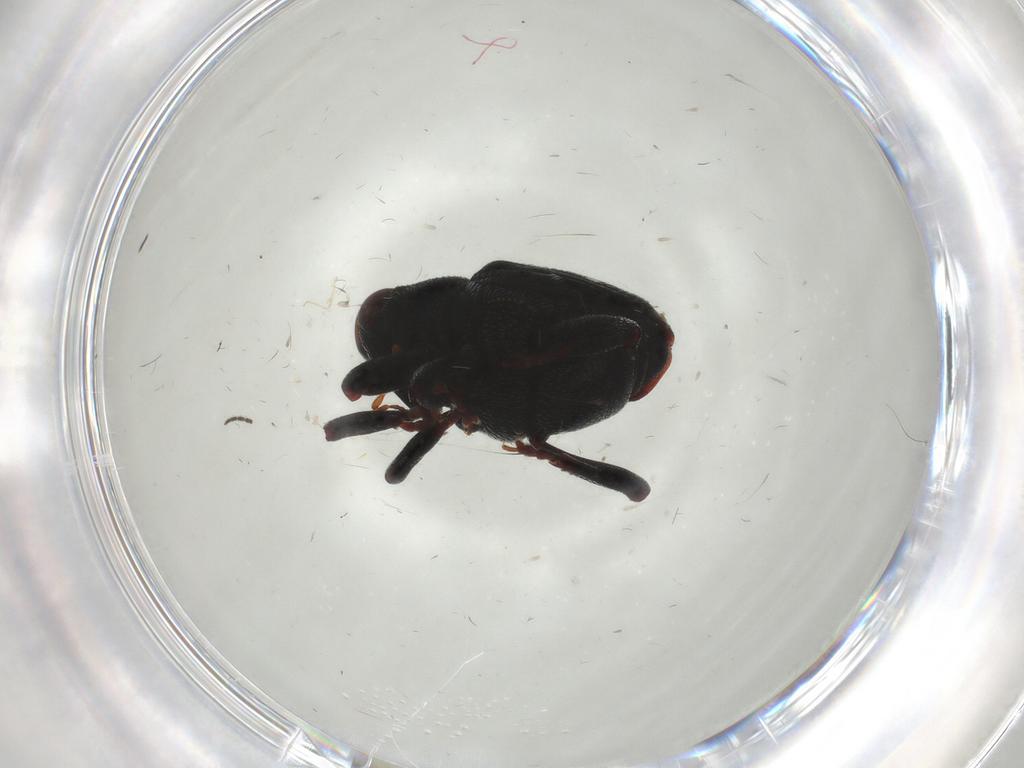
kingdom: Animalia
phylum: Arthropoda
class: Insecta
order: Coleoptera
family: Curculionidae
